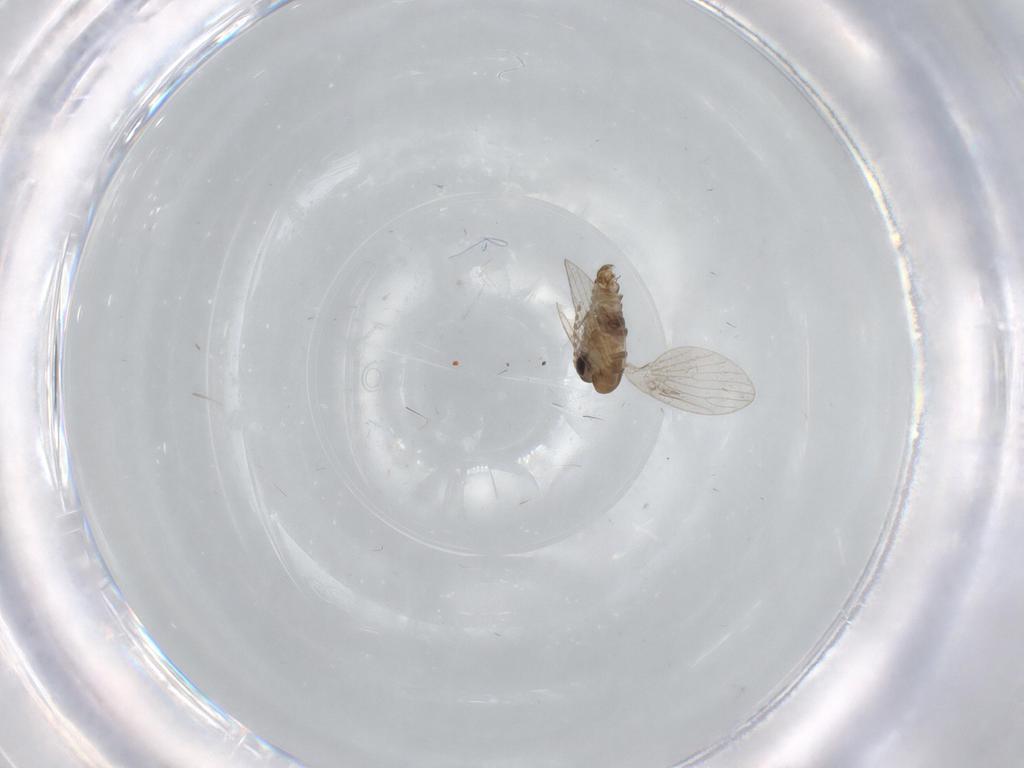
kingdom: Animalia
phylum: Arthropoda
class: Insecta
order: Diptera
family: Psychodidae
